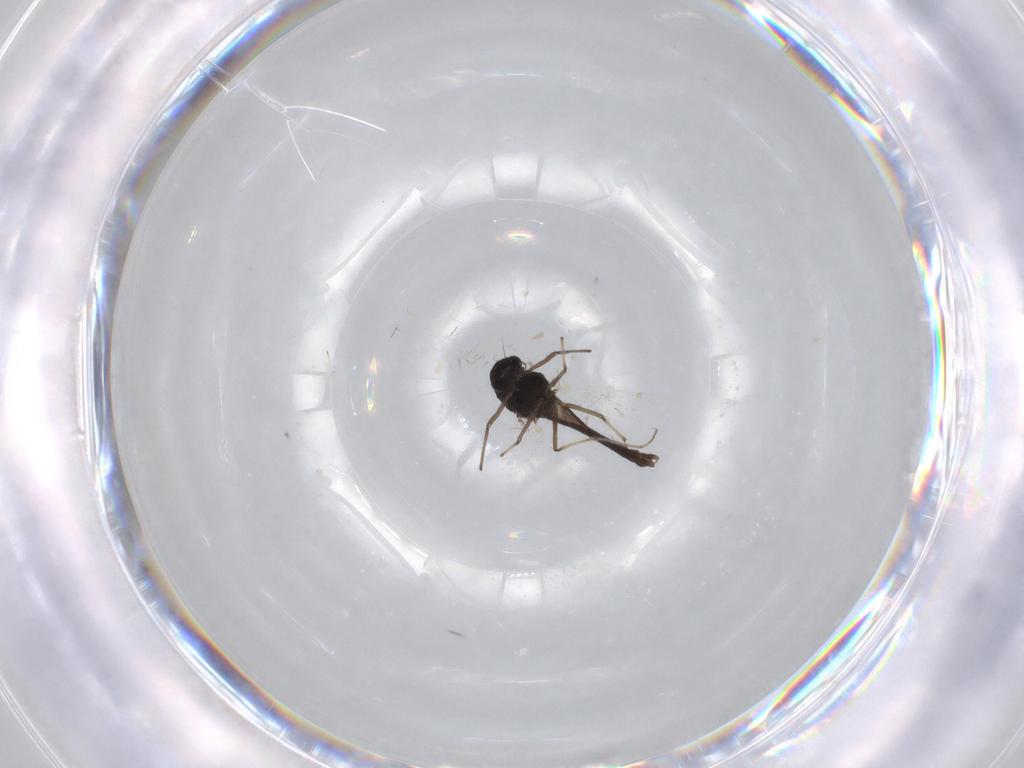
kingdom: Animalia
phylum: Arthropoda
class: Insecta
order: Diptera
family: Chironomidae
